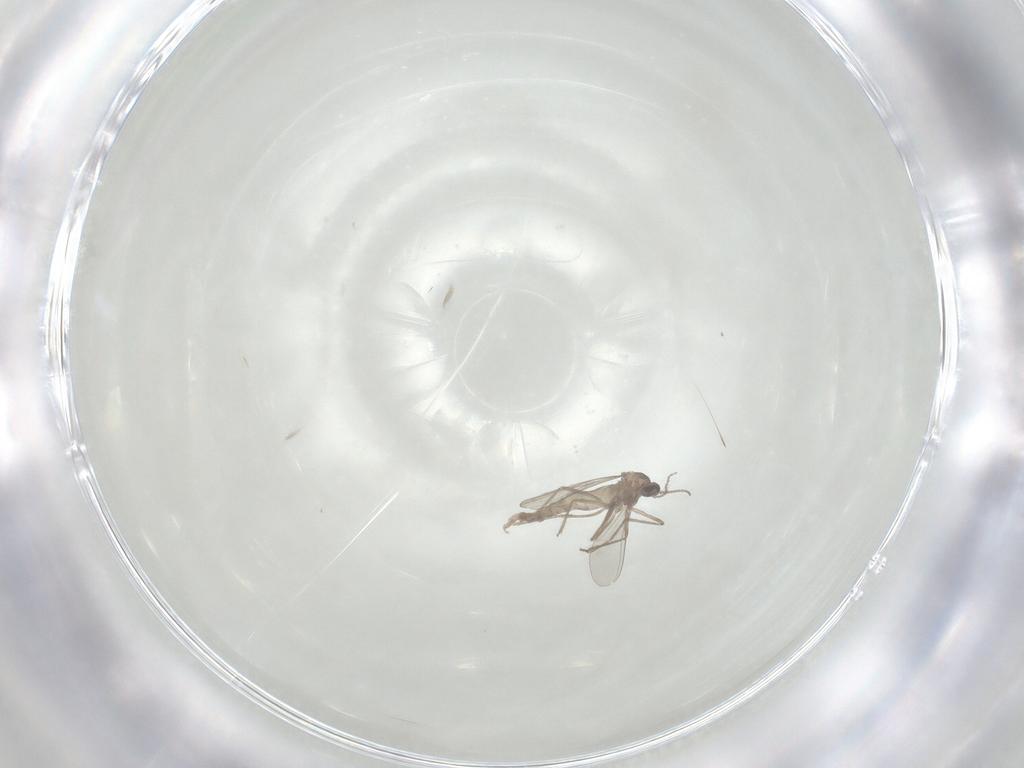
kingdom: Animalia
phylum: Arthropoda
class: Insecta
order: Diptera
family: Cecidomyiidae
